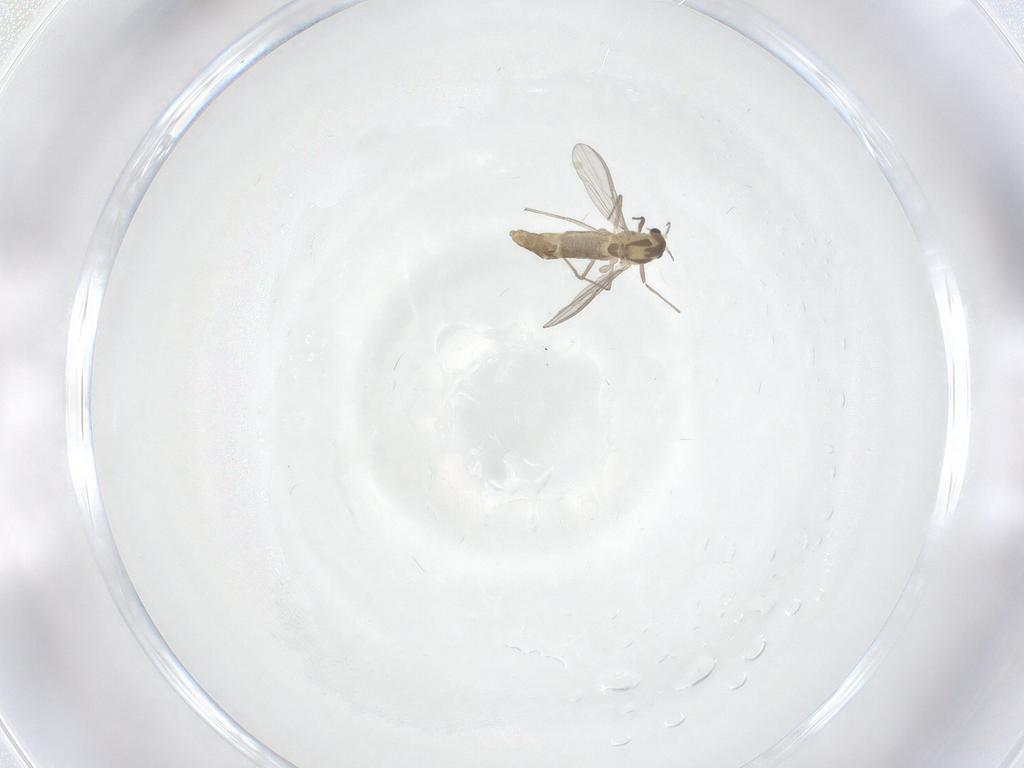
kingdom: Animalia
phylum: Arthropoda
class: Insecta
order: Diptera
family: Chironomidae
